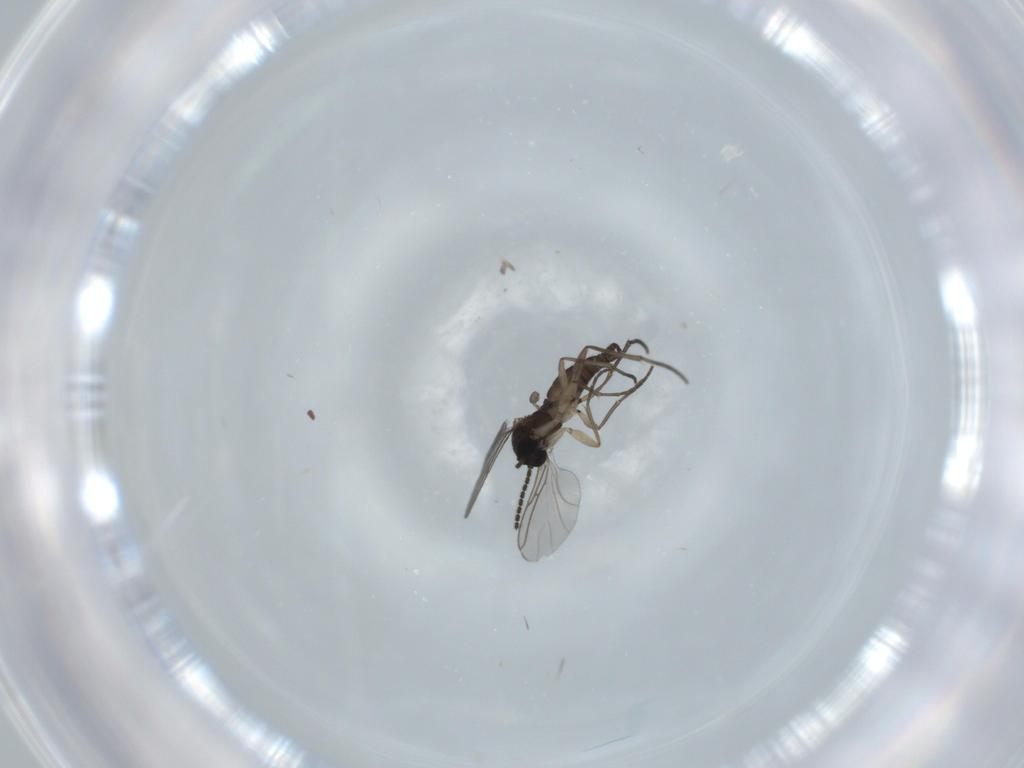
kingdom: Animalia
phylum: Arthropoda
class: Insecta
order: Diptera
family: Sciaridae
